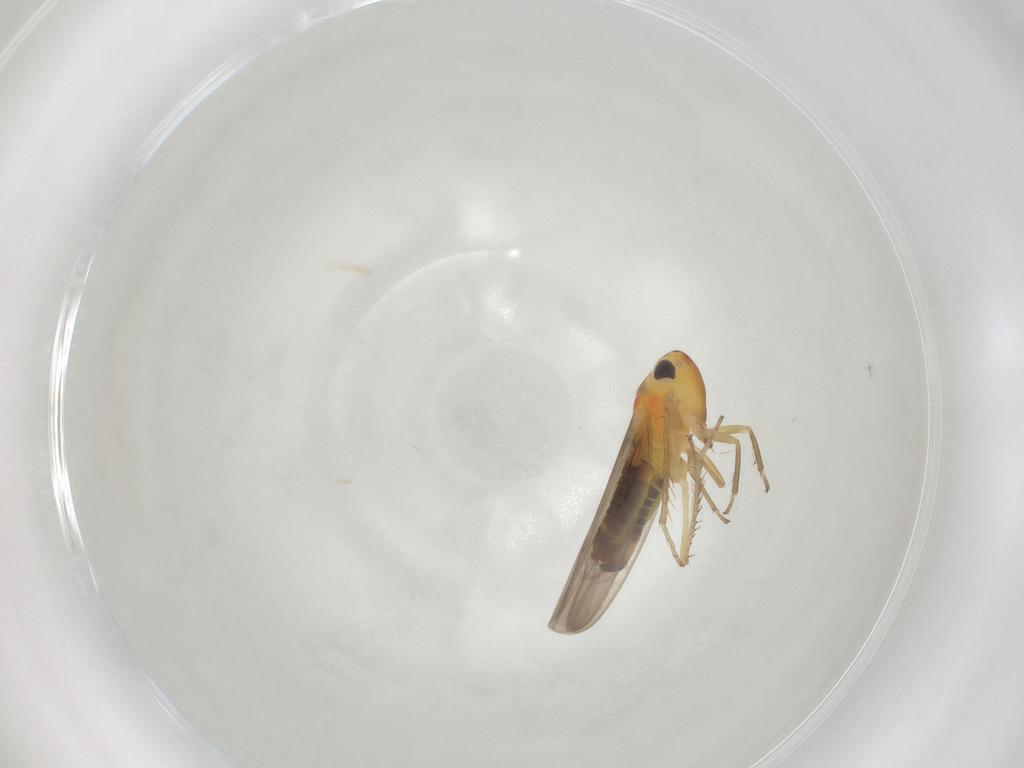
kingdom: Animalia
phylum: Arthropoda
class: Insecta
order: Hemiptera
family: Cicadellidae
